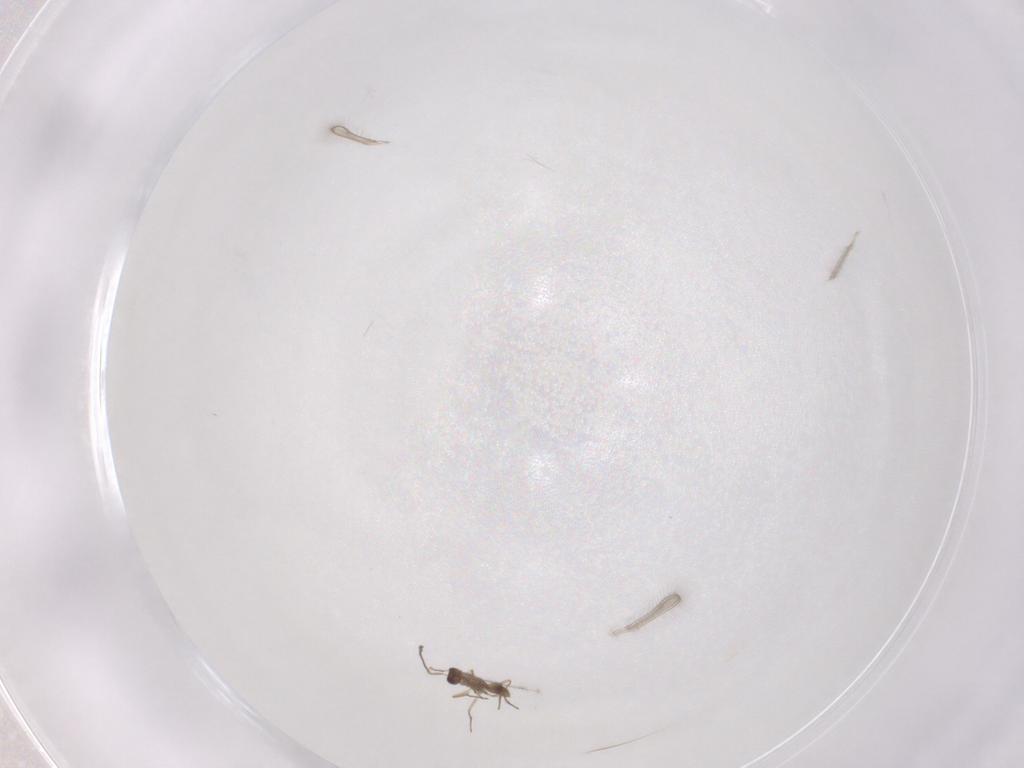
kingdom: Animalia
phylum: Arthropoda
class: Insecta
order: Hymenoptera
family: Mymaridae
